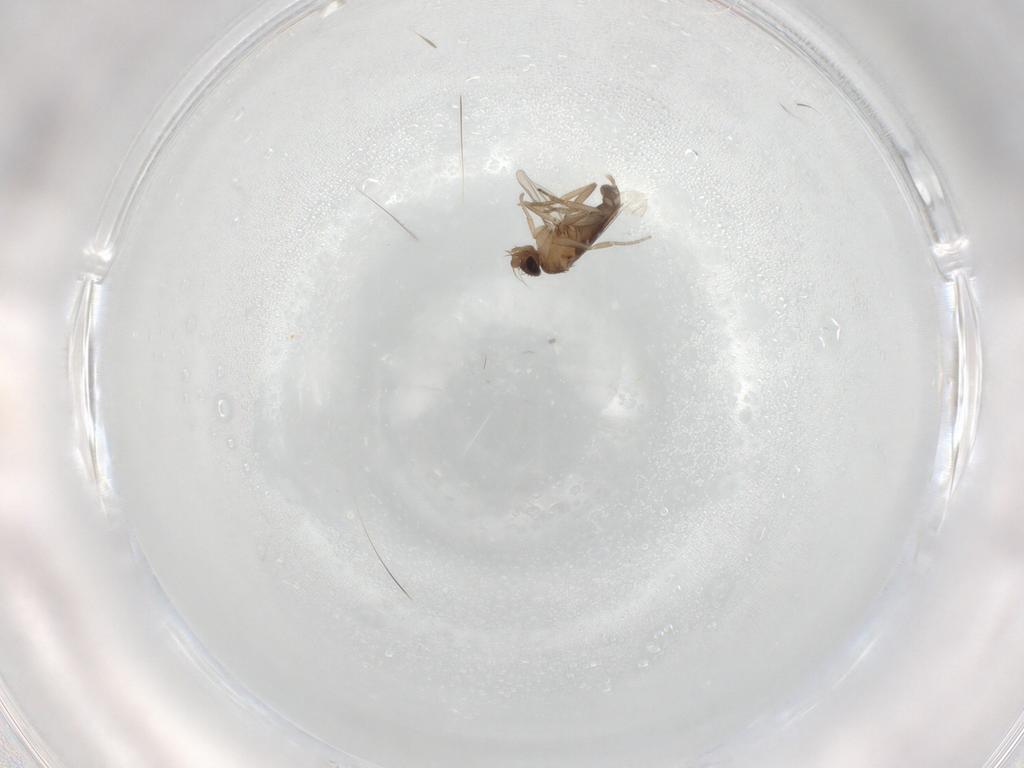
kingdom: Animalia
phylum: Arthropoda
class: Insecta
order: Diptera
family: Phoridae
